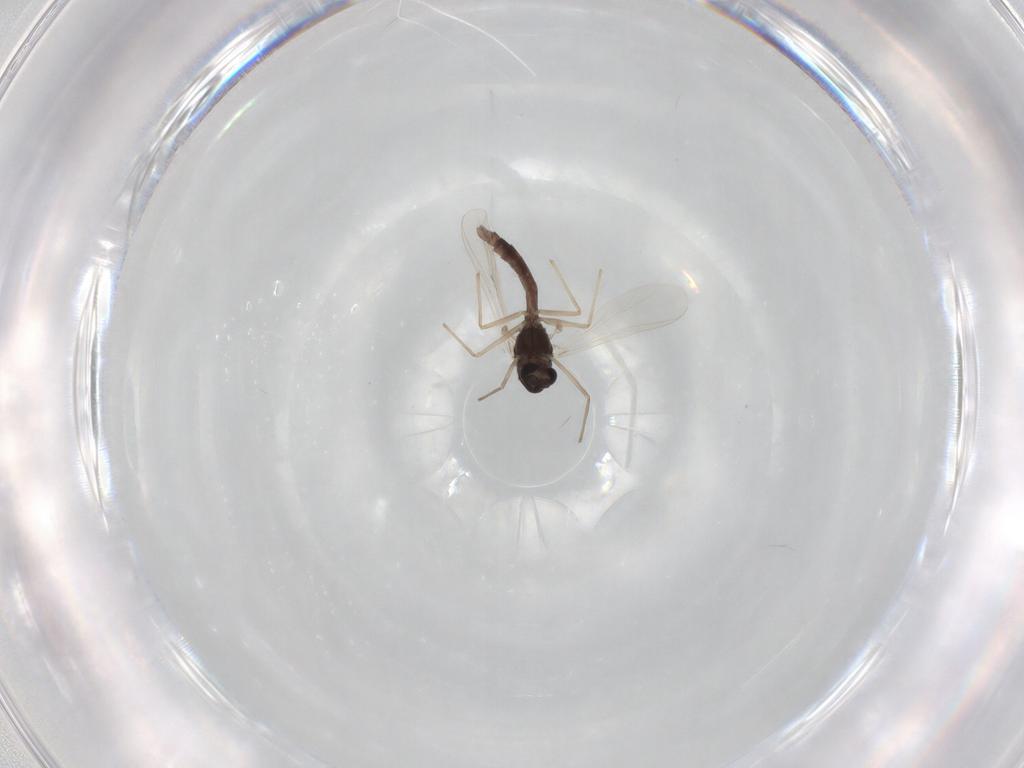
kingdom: Animalia
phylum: Arthropoda
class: Insecta
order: Diptera
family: Chironomidae
